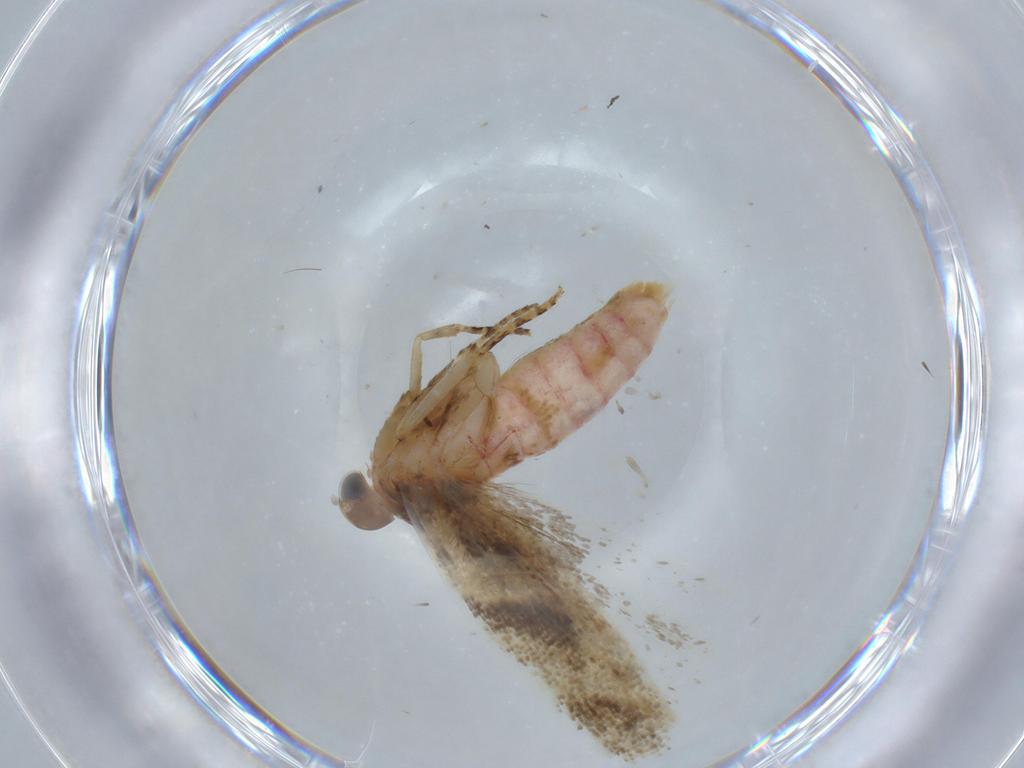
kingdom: Animalia
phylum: Arthropoda
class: Insecta
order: Lepidoptera
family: Gelechiidae
